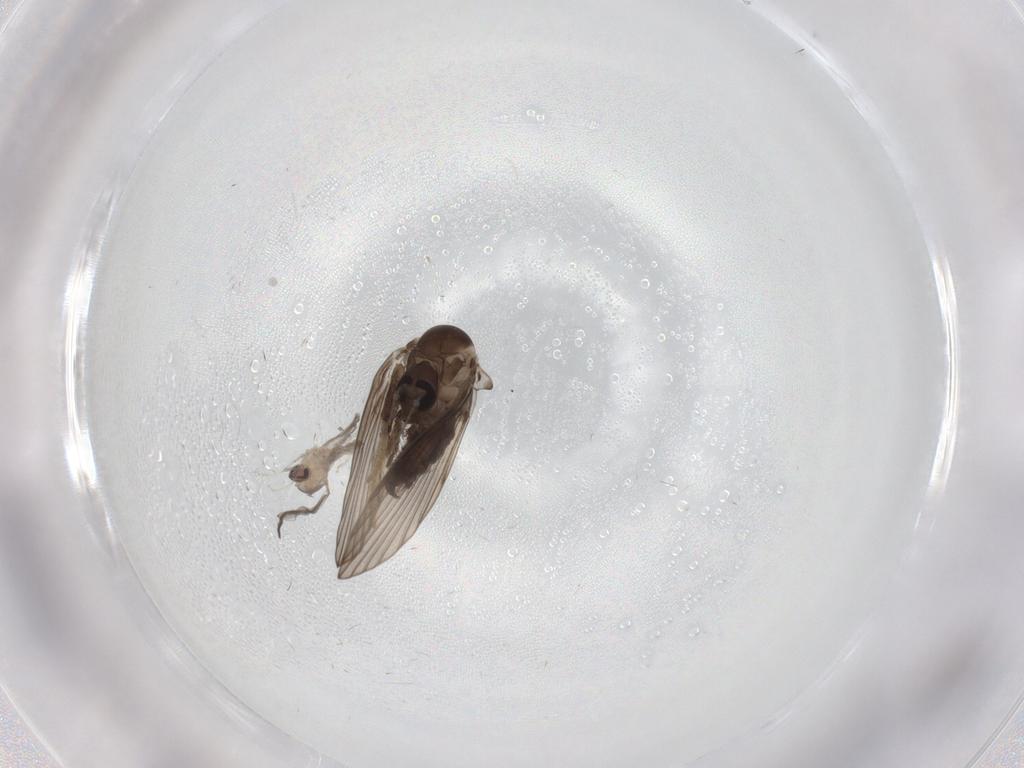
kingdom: Animalia
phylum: Arthropoda
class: Insecta
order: Diptera
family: Cecidomyiidae
